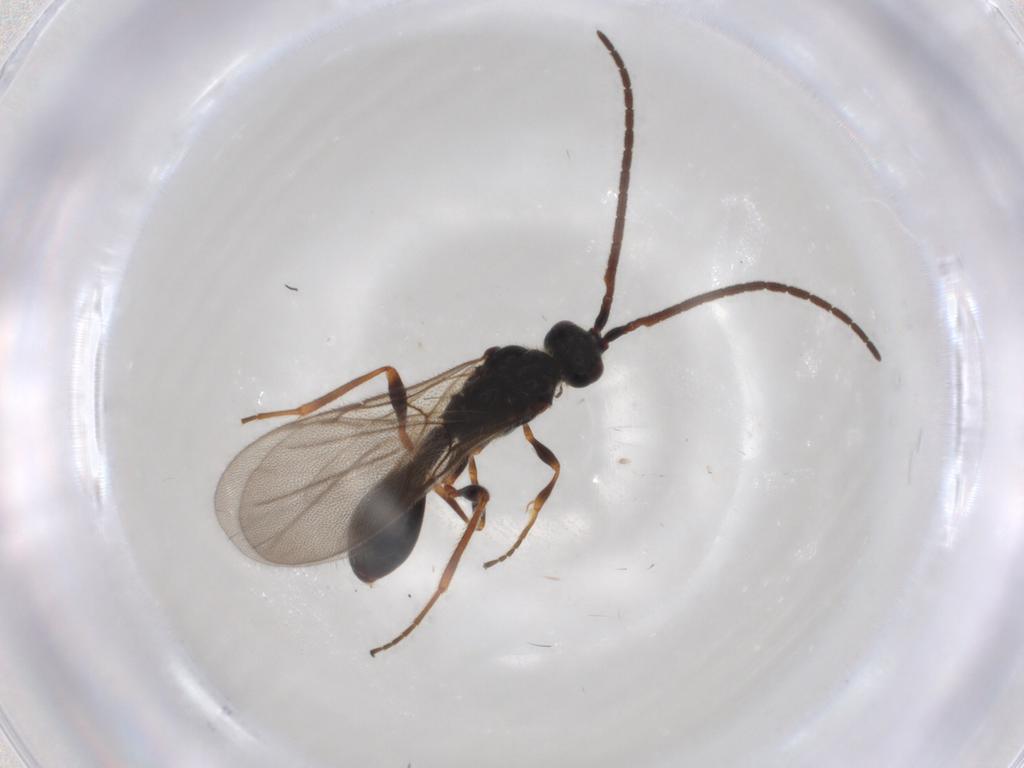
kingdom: Animalia
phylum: Arthropoda
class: Insecta
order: Hymenoptera
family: Diapriidae
